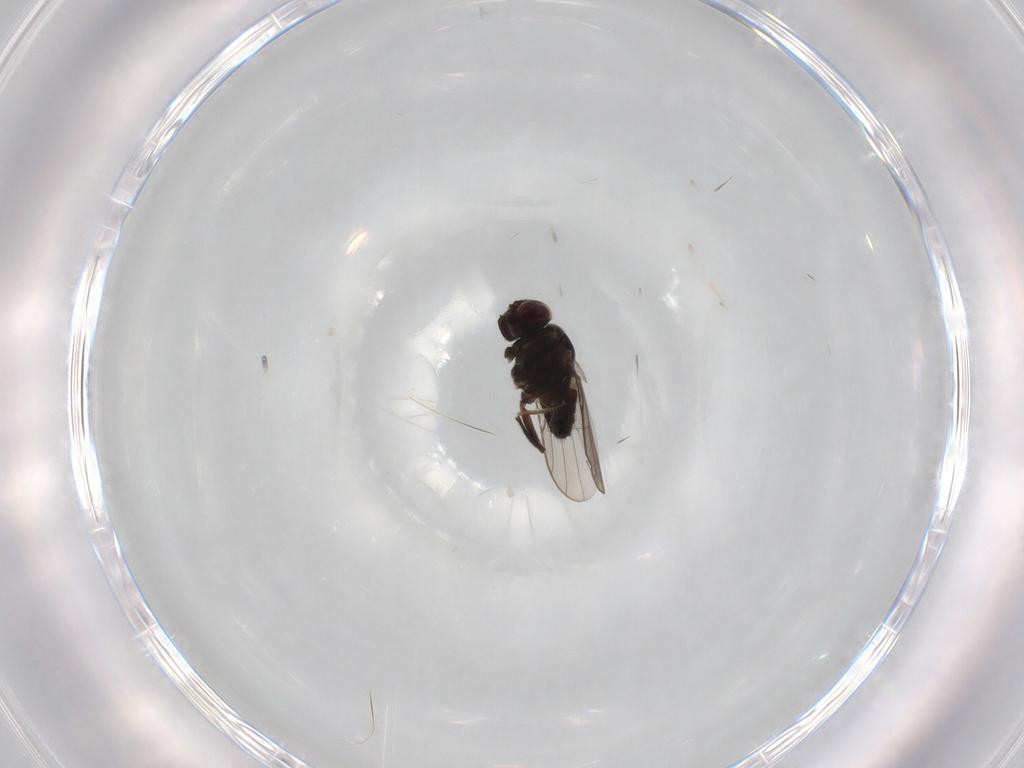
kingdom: Animalia
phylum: Arthropoda
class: Insecta
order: Diptera
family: Chloropidae
